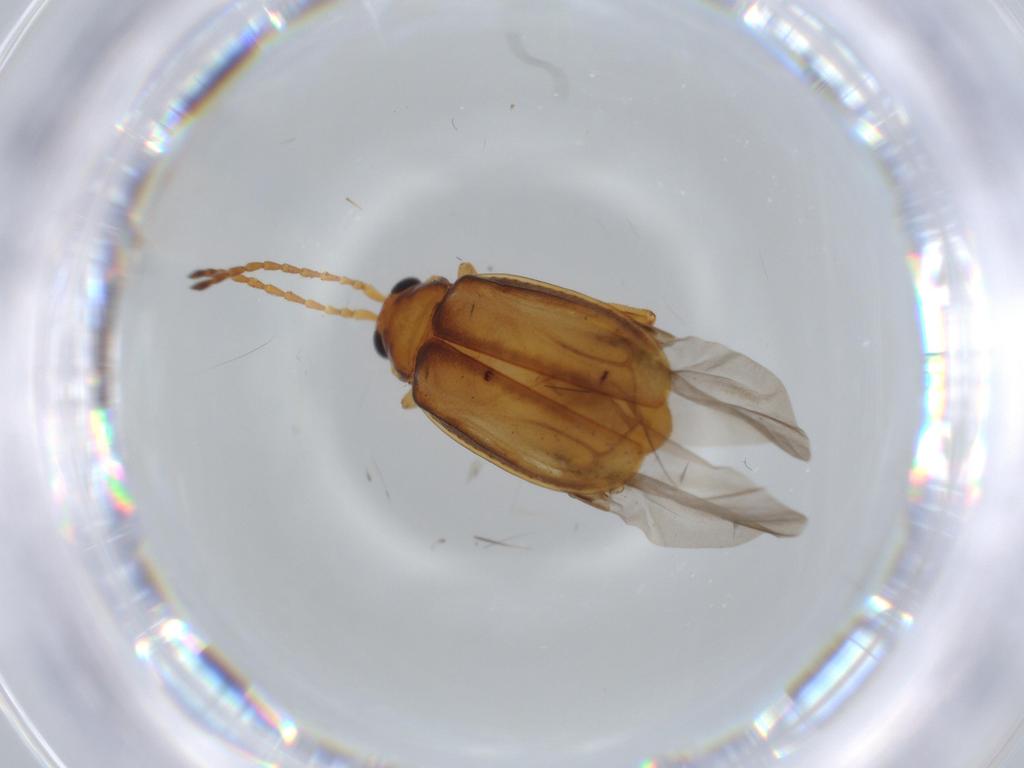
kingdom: Animalia
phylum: Arthropoda
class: Insecta
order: Coleoptera
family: Chrysomelidae
